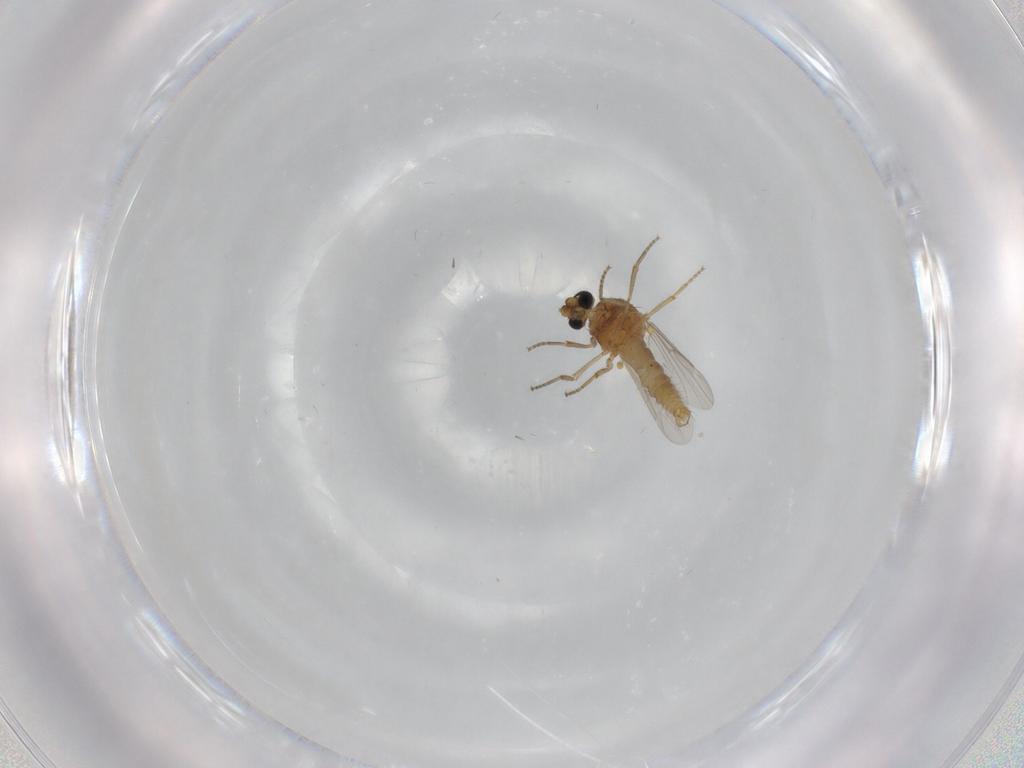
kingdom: Animalia
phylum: Arthropoda
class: Insecta
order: Diptera
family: Ceratopogonidae
